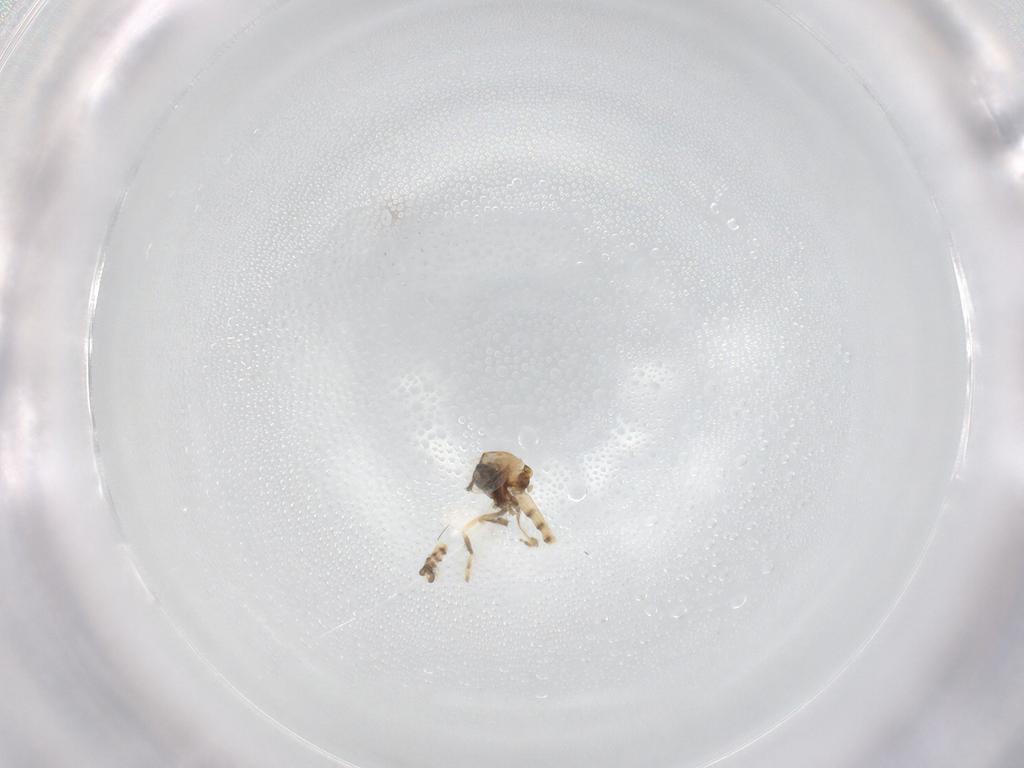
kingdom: Animalia
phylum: Arthropoda
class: Insecta
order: Diptera
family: Ceratopogonidae
